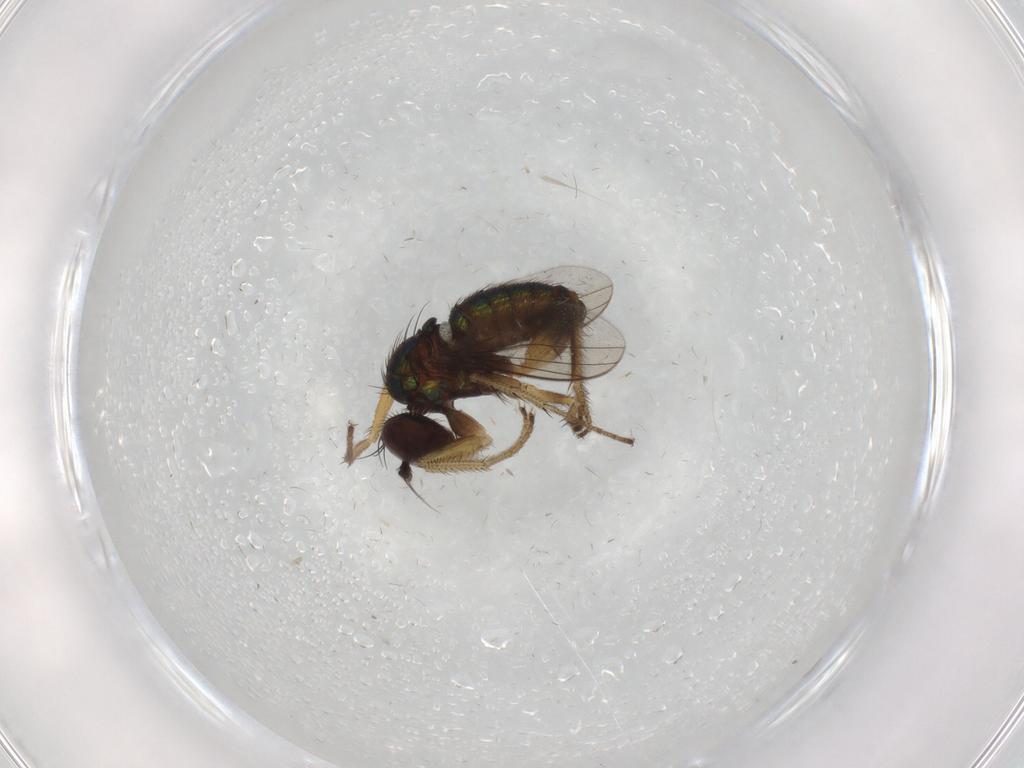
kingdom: Animalia
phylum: Arthropoda
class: Insecta
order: Diptera
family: Dolichopodidae
